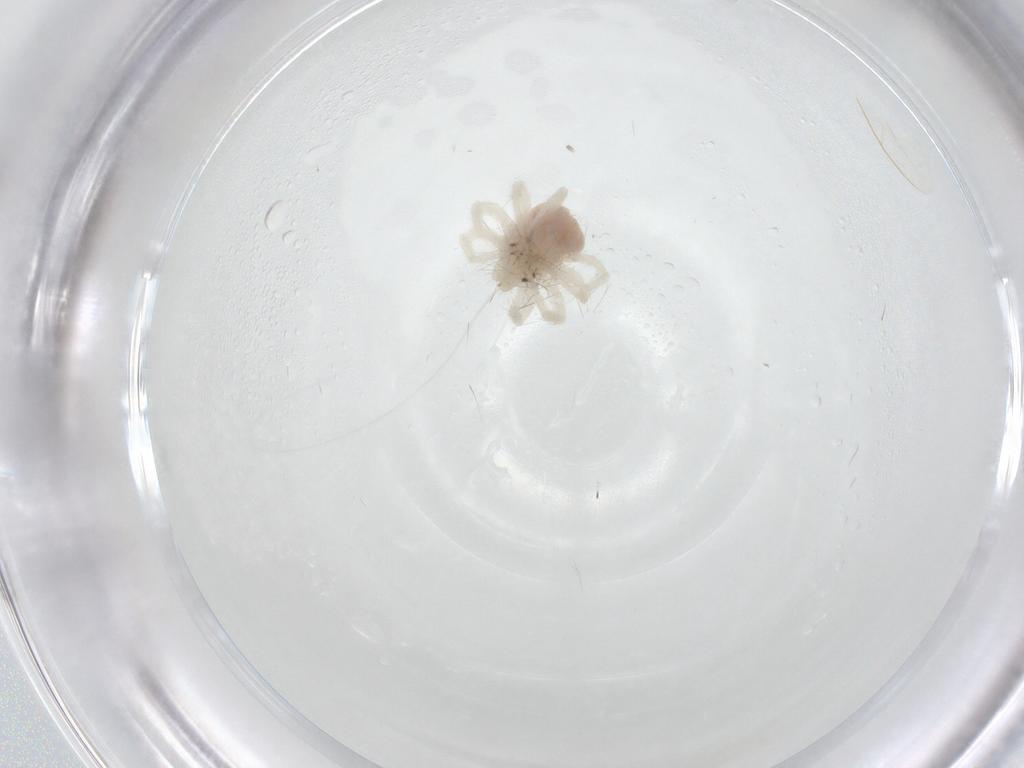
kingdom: Animalia
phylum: Arthropoda
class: Arachnida
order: Trombidiformes
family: Anystidae
